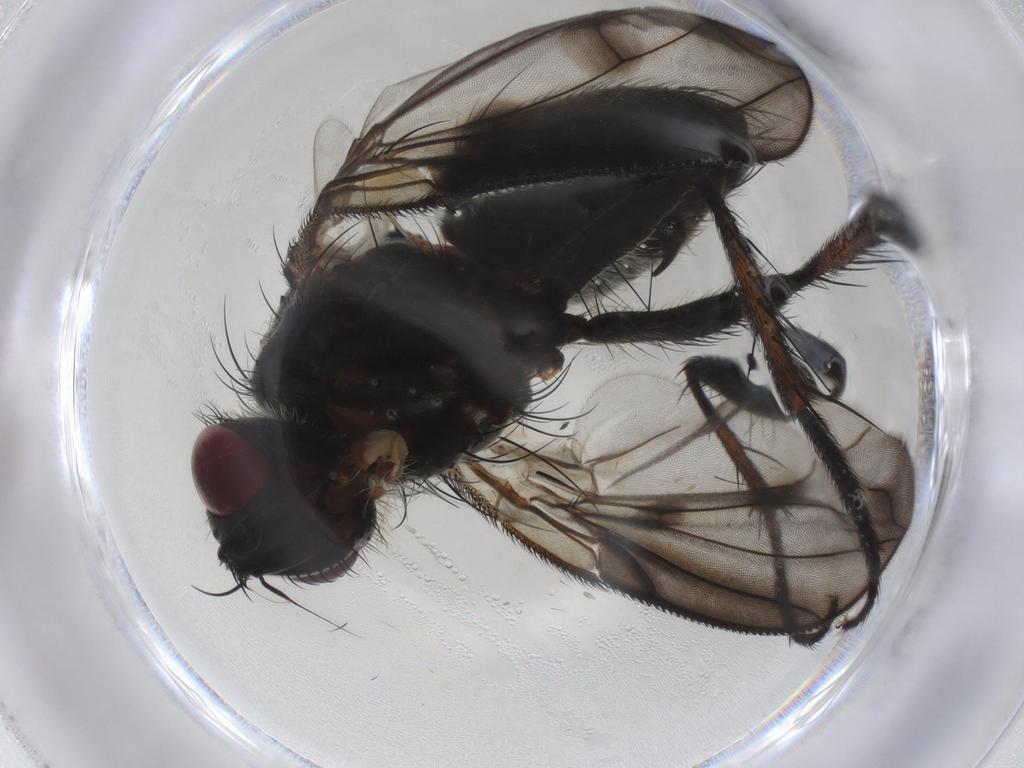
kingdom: Animalia
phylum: Arthropoda
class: Insecta
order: Diptera
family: Tachinidae
